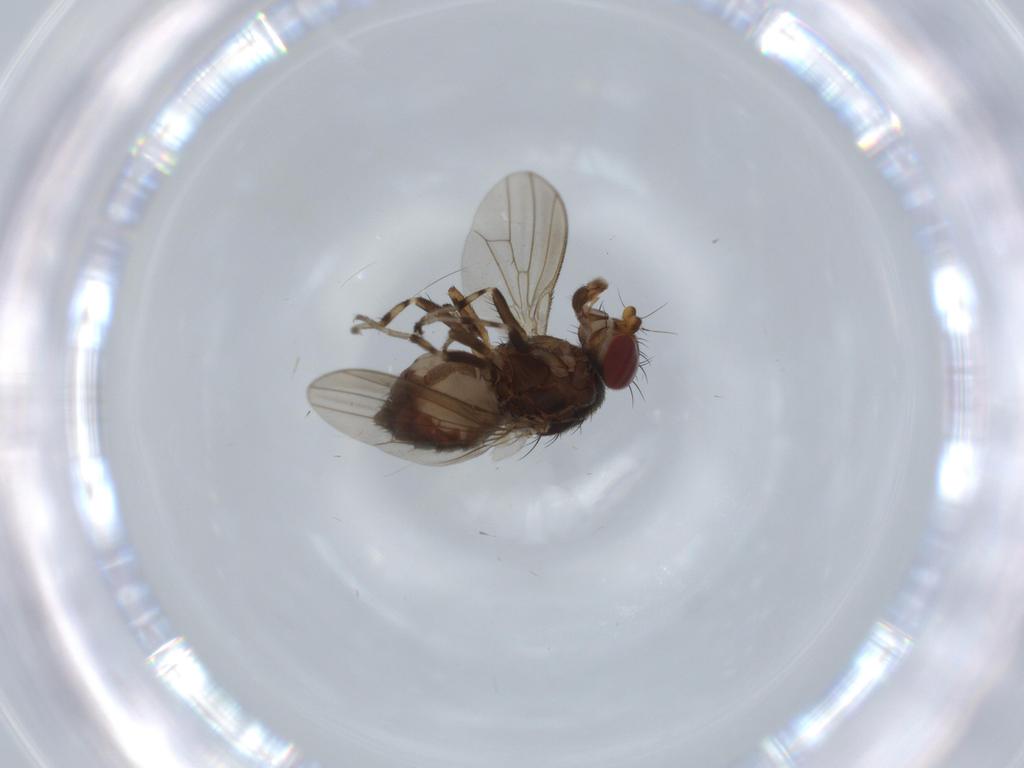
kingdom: Animalia
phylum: Arthropoda
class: Insecta
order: Diptera
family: Heleomyzidae
